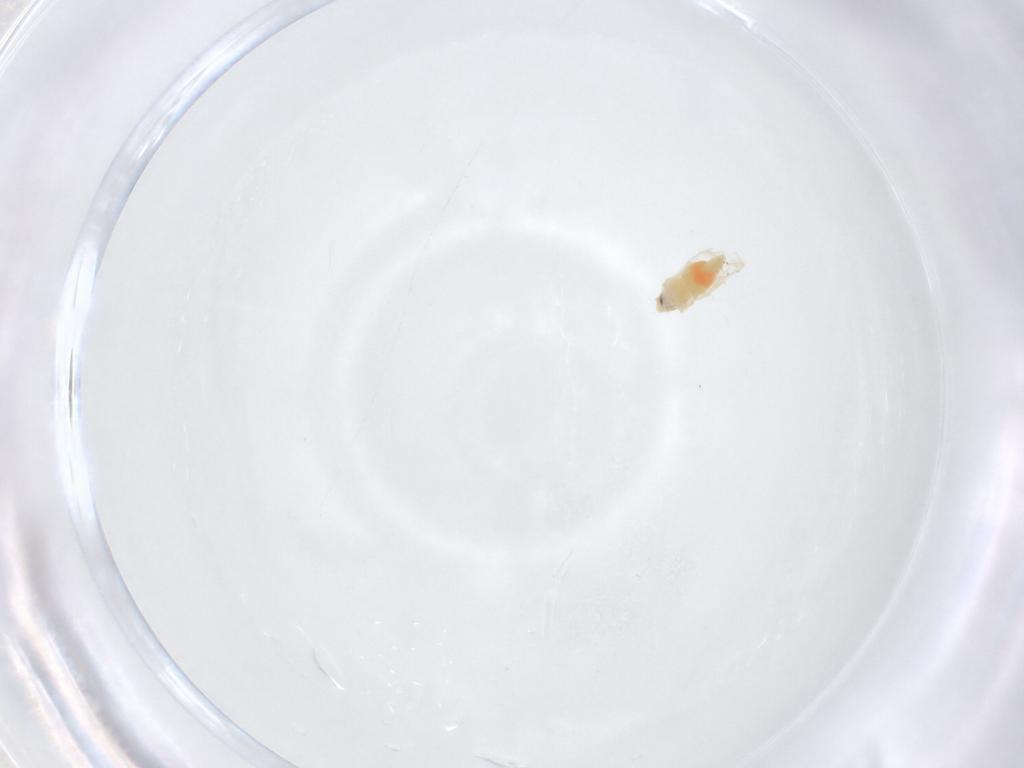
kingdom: Animalia
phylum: Arthropoda
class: Insecta
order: Hemiptera
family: Aleyrodidae
